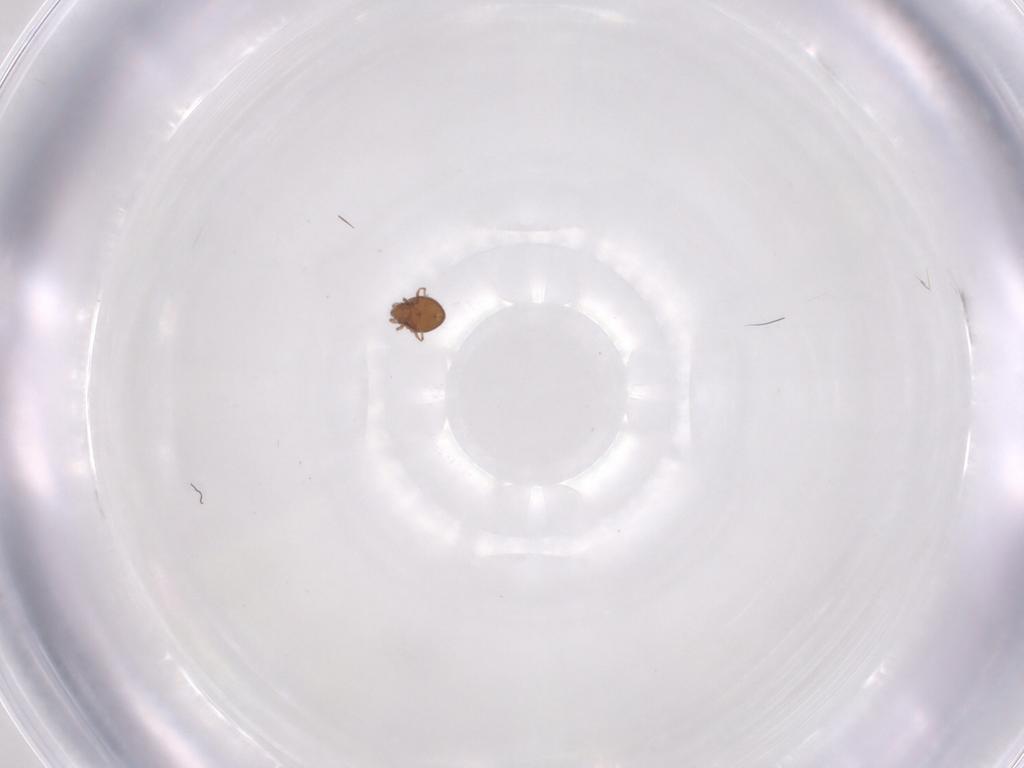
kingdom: Animalia
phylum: Arthropoda
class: Arachnida
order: Sarcoptiformes
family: Oribatulidae
